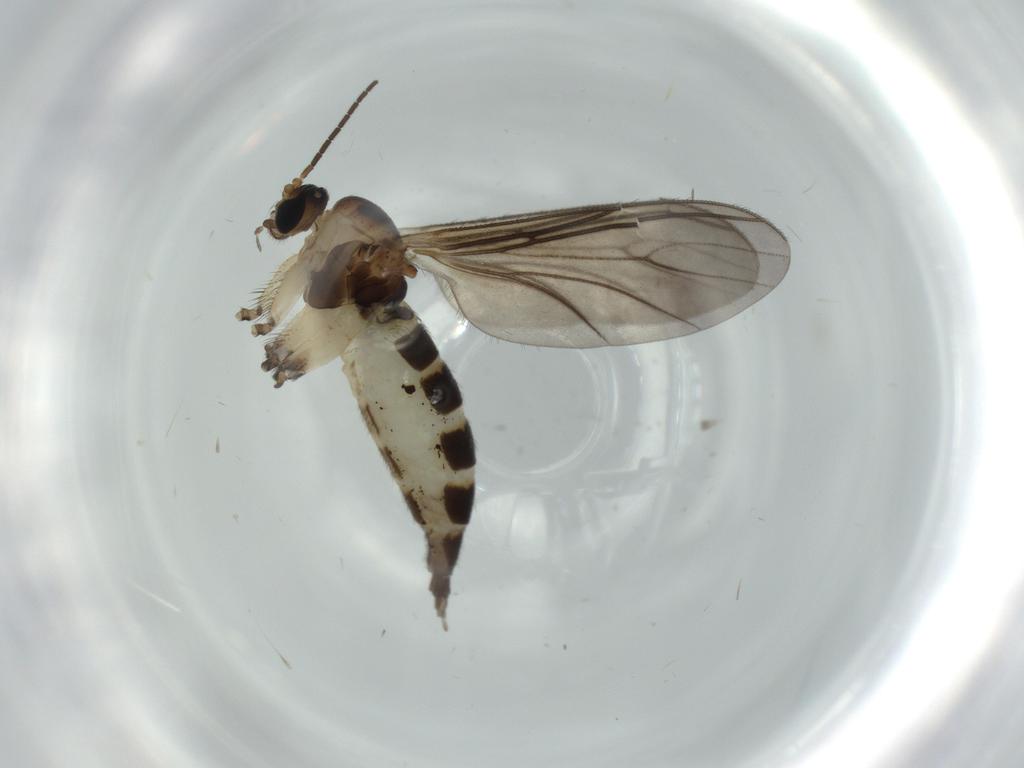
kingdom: Animalia
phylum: Arthropoda
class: Insecta
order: Diptera
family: Sciaridae
